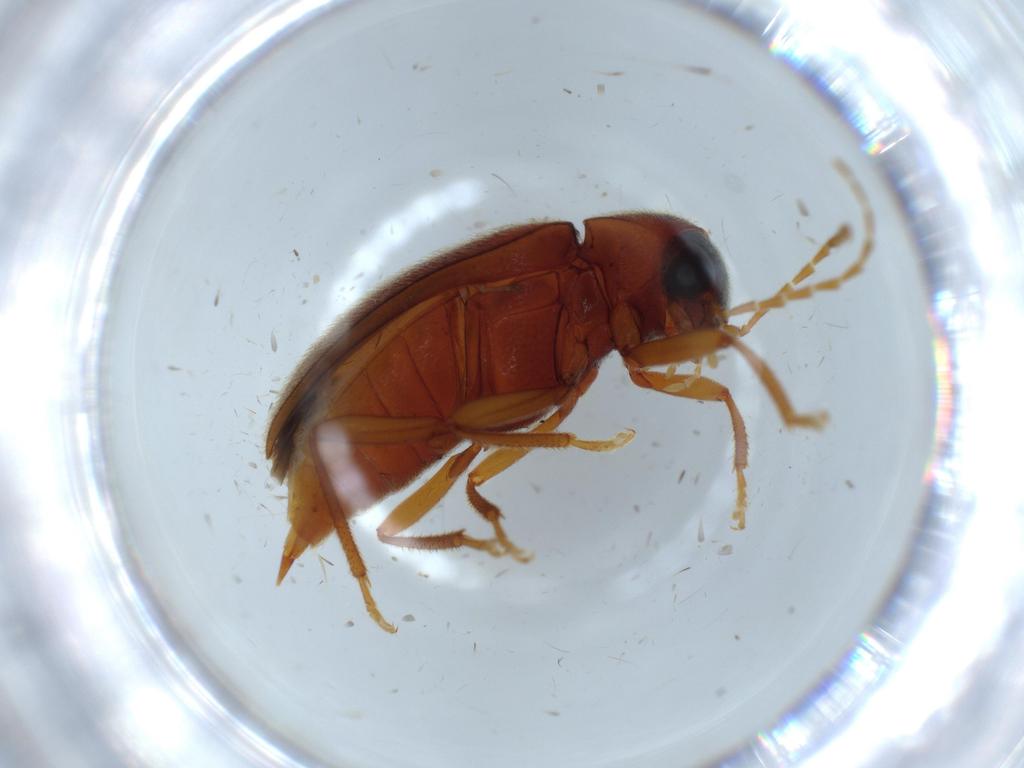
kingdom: Animalia
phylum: Arthropoda
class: Insecta
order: Coleoptera
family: Ptilodactylidae
